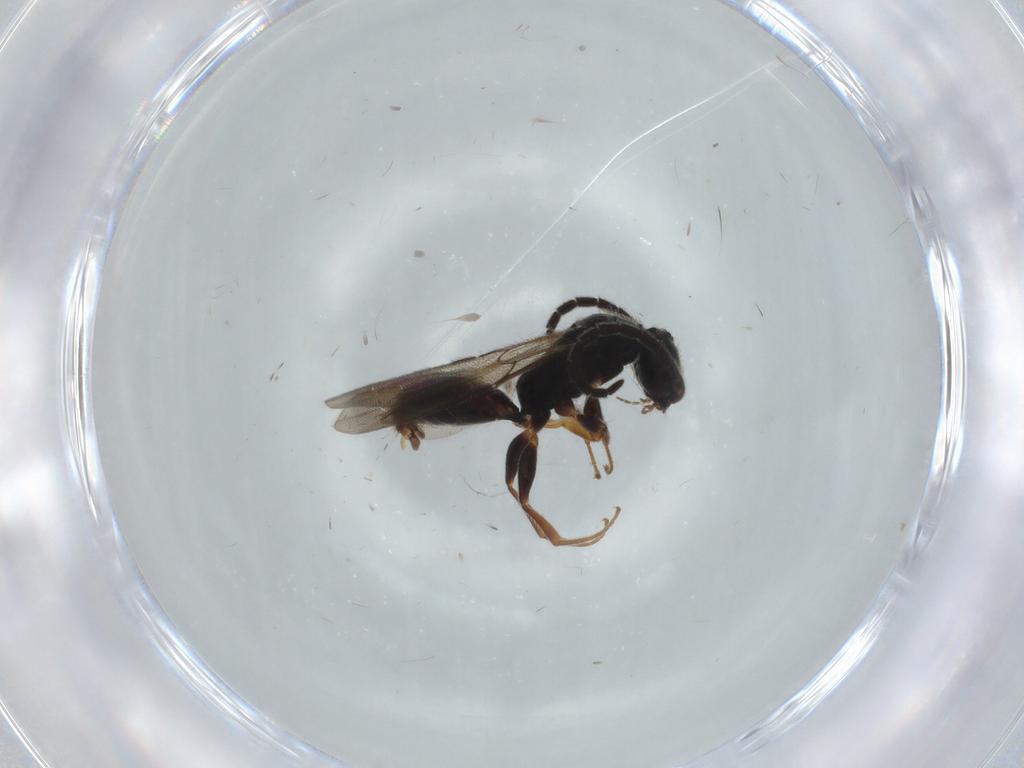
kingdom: Animalia
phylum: Arthropoda
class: Insecta
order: Hymenoptera
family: Bethylidae
